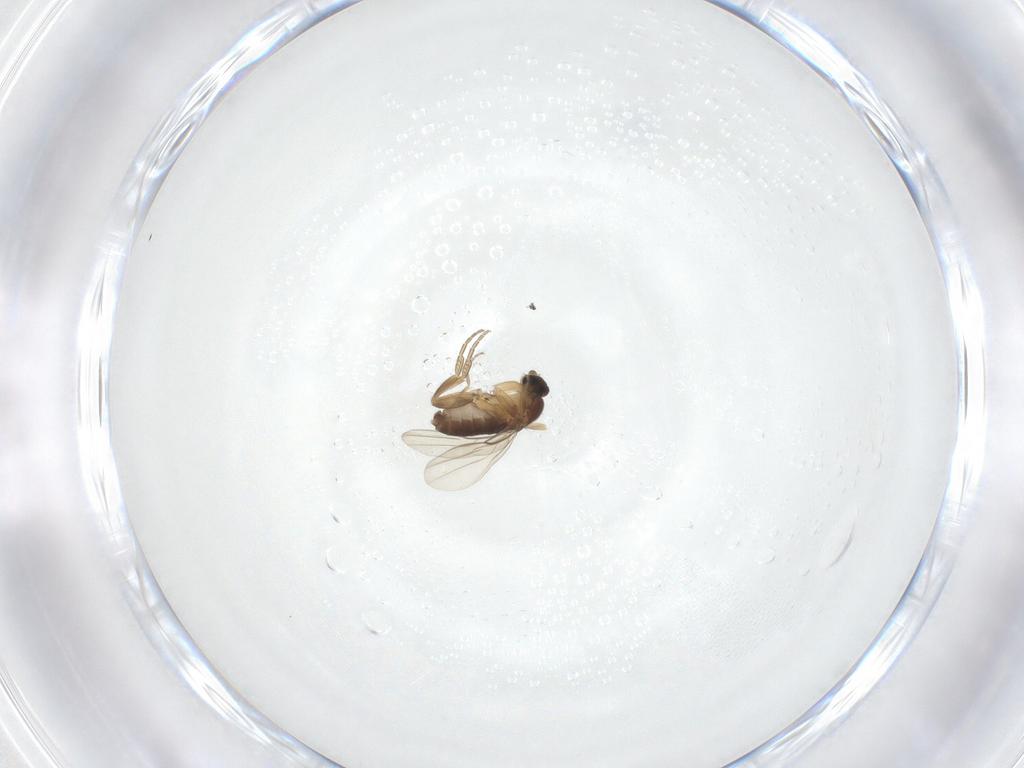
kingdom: Animalia
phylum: Arthropoda
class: Insecta
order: Diptera
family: Phoridae
